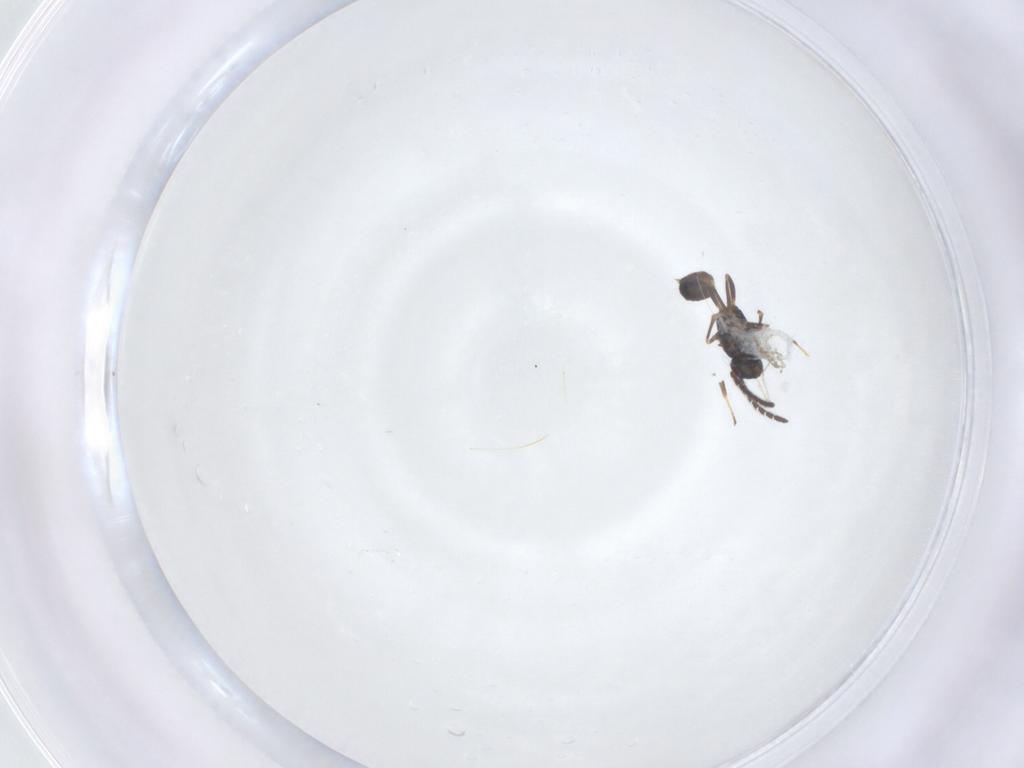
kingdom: Animalia
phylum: Arthropoda
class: Insecta
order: Hymenoptera
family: Encyrtidae
